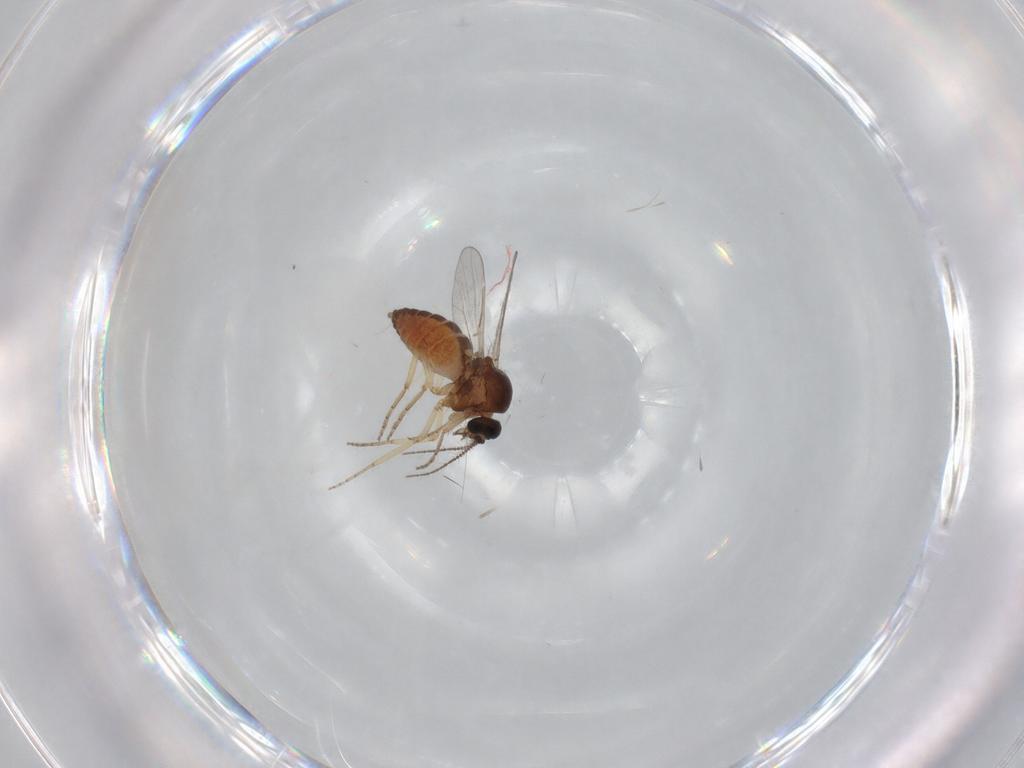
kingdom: Animalia
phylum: Arthropoda
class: Insecta
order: Diptera
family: Ceratopogonidae
